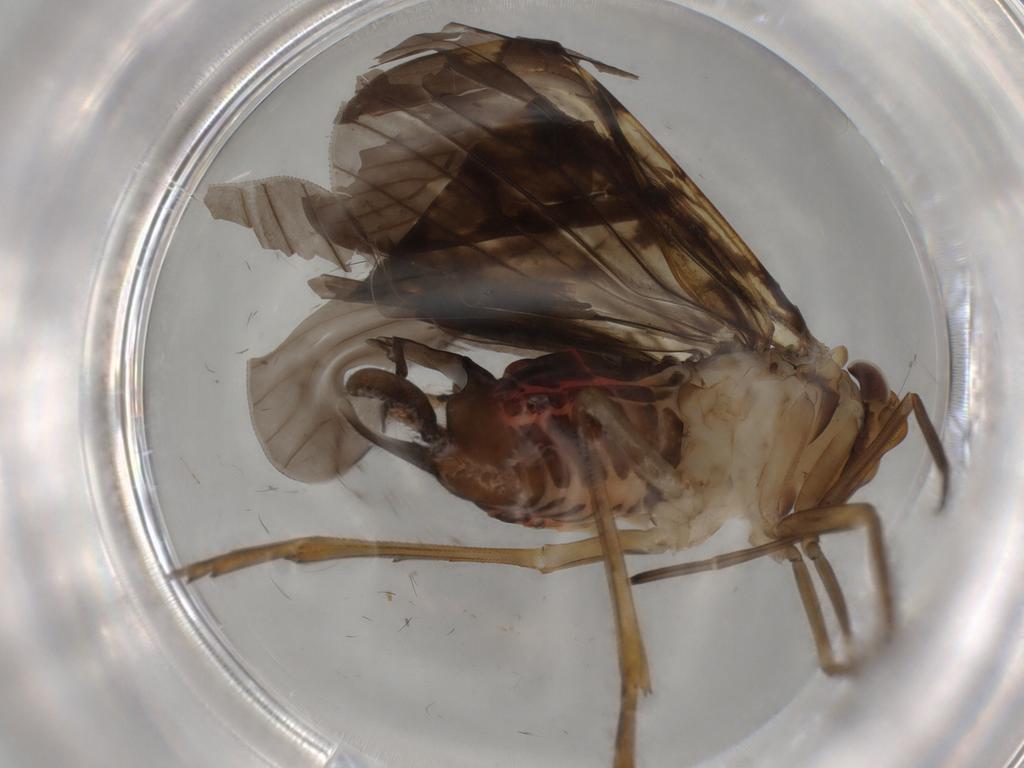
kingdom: Animalia
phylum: Arthropoda
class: Insecta
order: Hemiptera
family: Cixiidae
